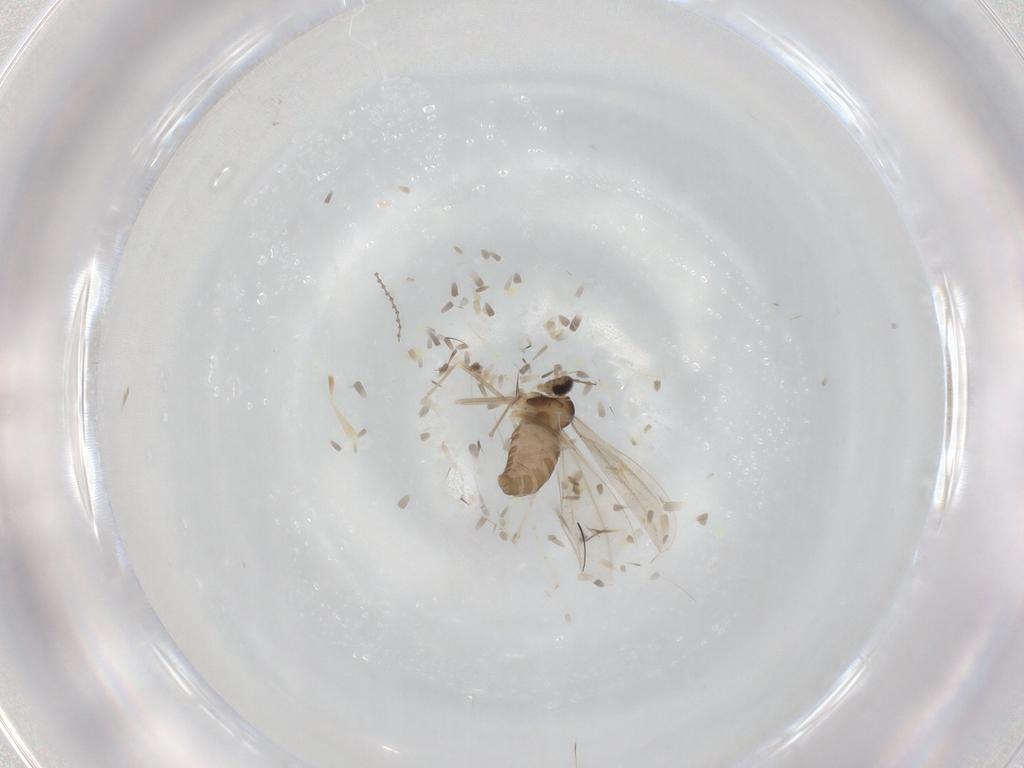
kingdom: Animalia
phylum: Arthropoda
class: Insecta
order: Diptera
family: Cecidomyiidae
